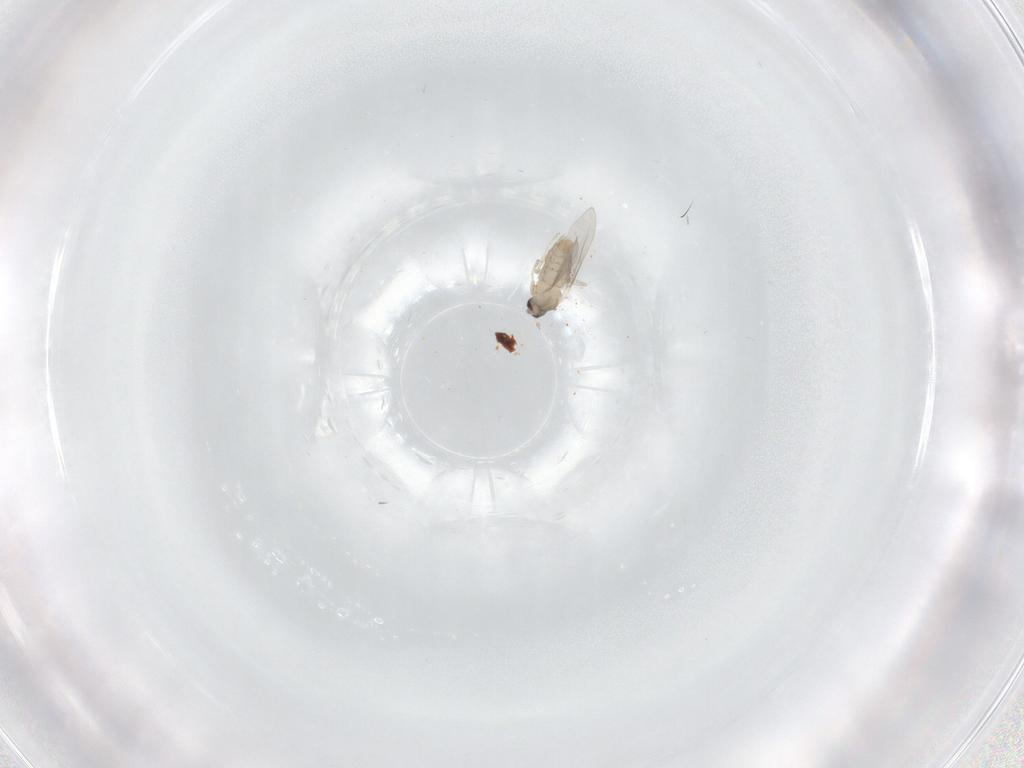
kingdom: Animalia
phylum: Arthropoda
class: Insecta
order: Diptera
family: Cecidomyiidae
